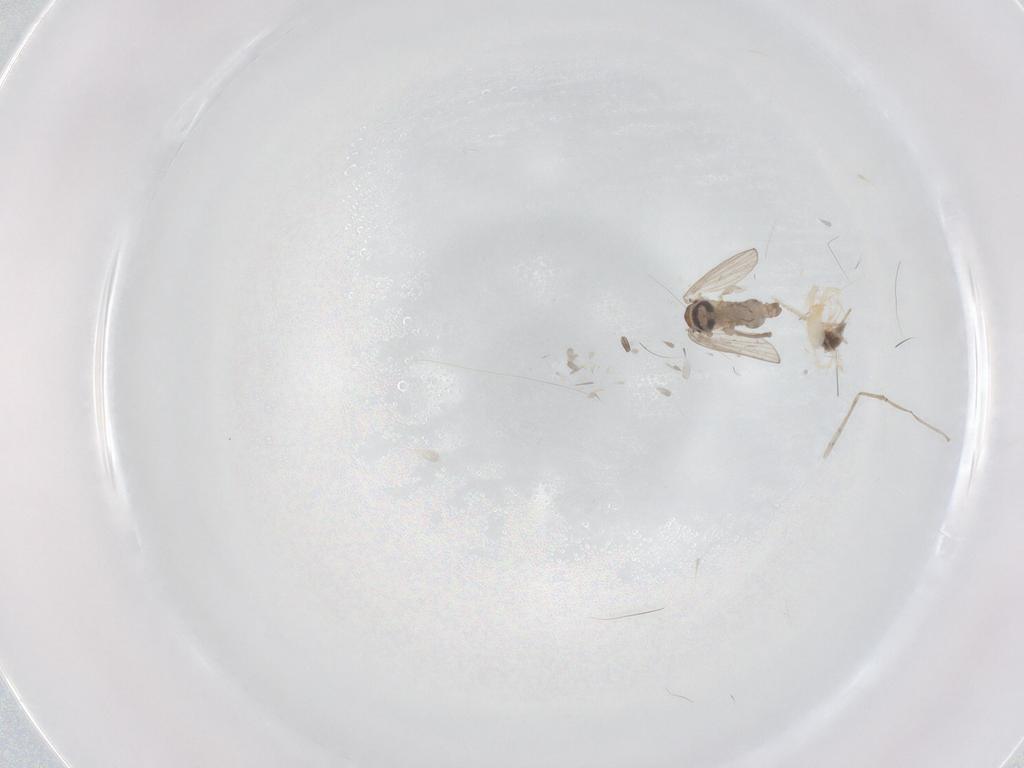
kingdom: Animalia
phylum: Arthropoda
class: Insecta
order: Diptera
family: Psychodidae
